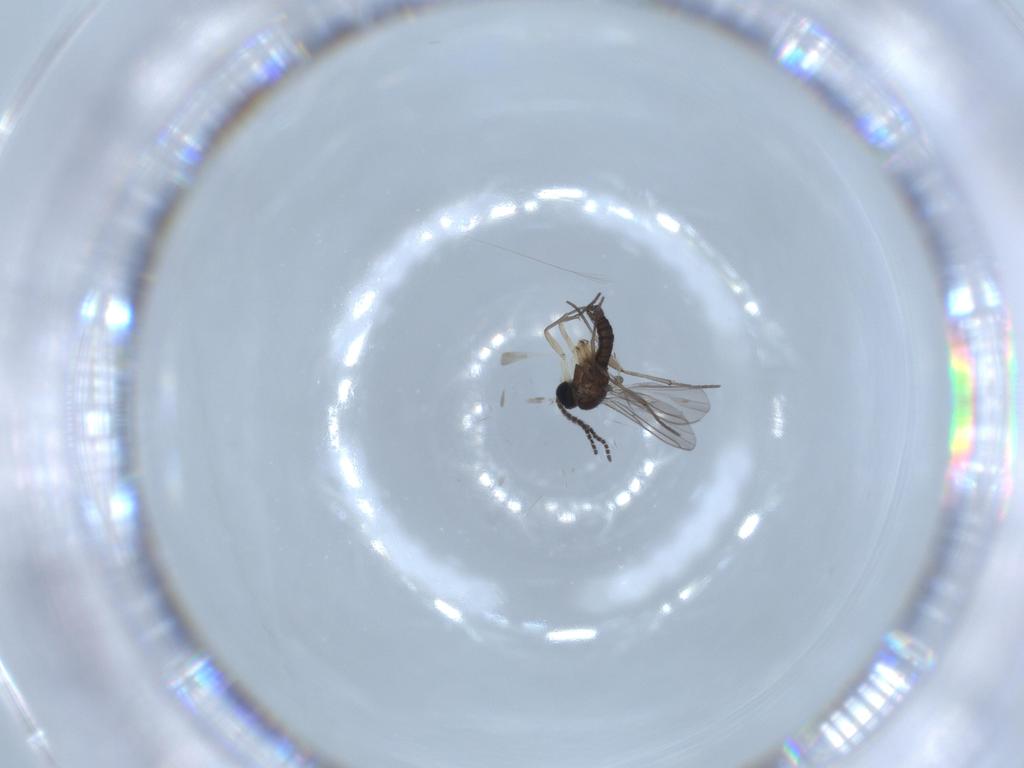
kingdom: Animalia
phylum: Arthropoda
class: Insecta
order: Diptera
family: Sciaridae
